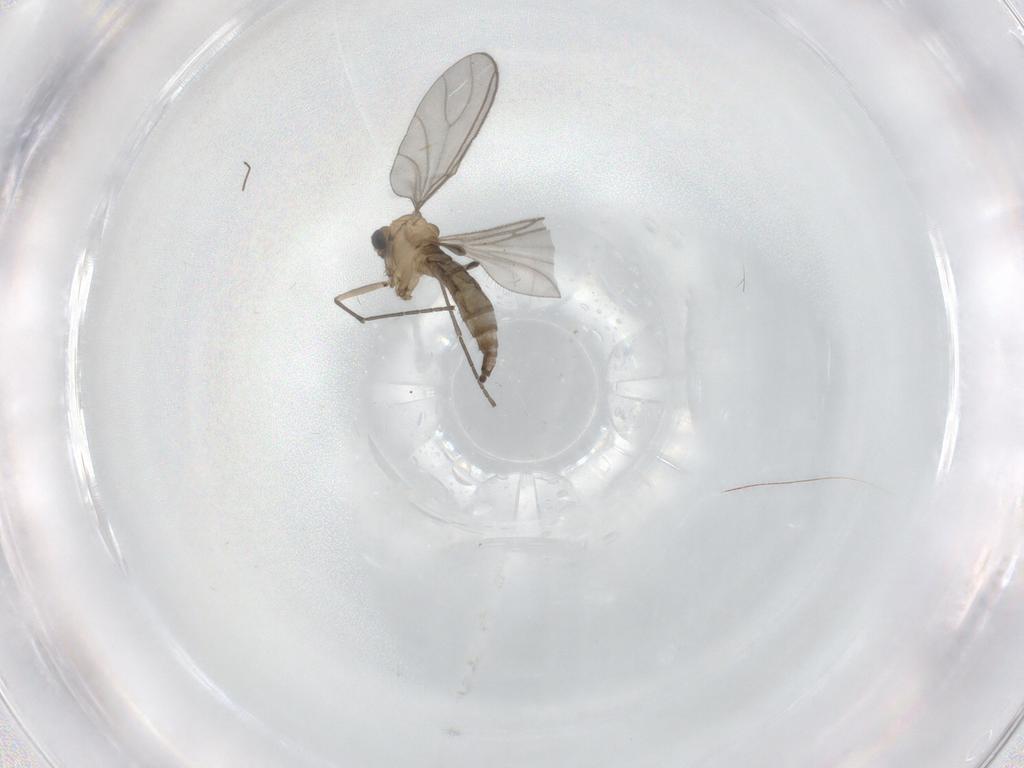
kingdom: Animalia
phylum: Arthropoda
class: Insecta
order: Diptera
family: Sciaridae
